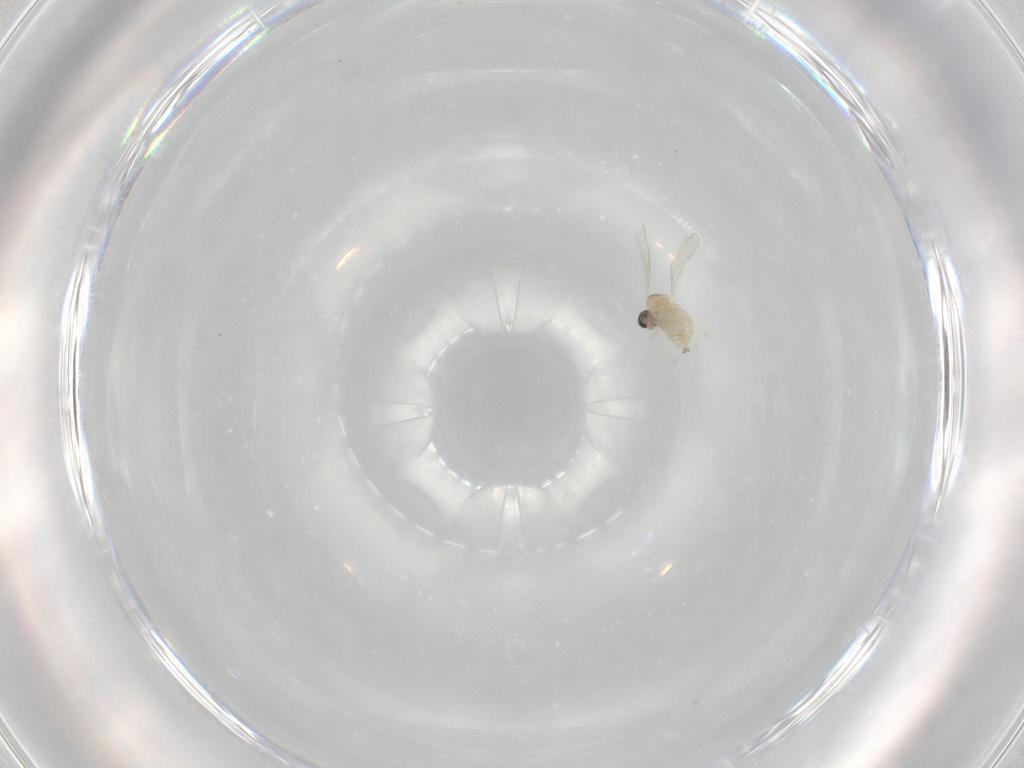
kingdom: Animalia
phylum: Arthropoda
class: Insecta
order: Diptera
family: Cecidomyiidae
